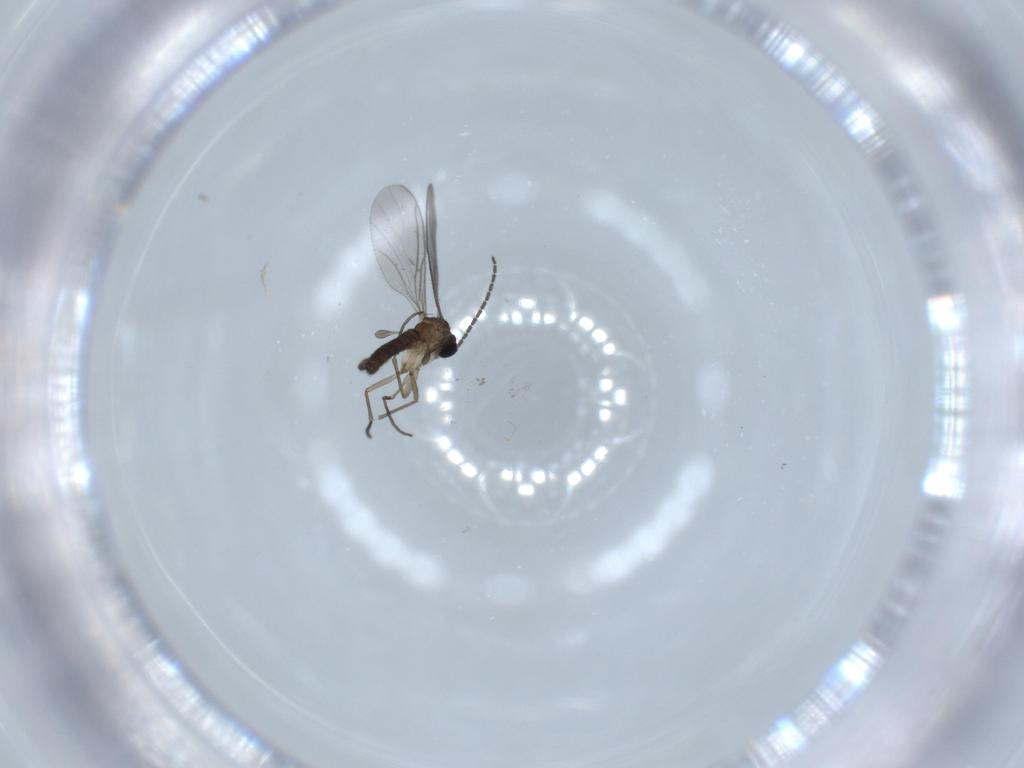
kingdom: Animalia
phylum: Arthropoda
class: Insecta
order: Diptera
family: Sciaridae
